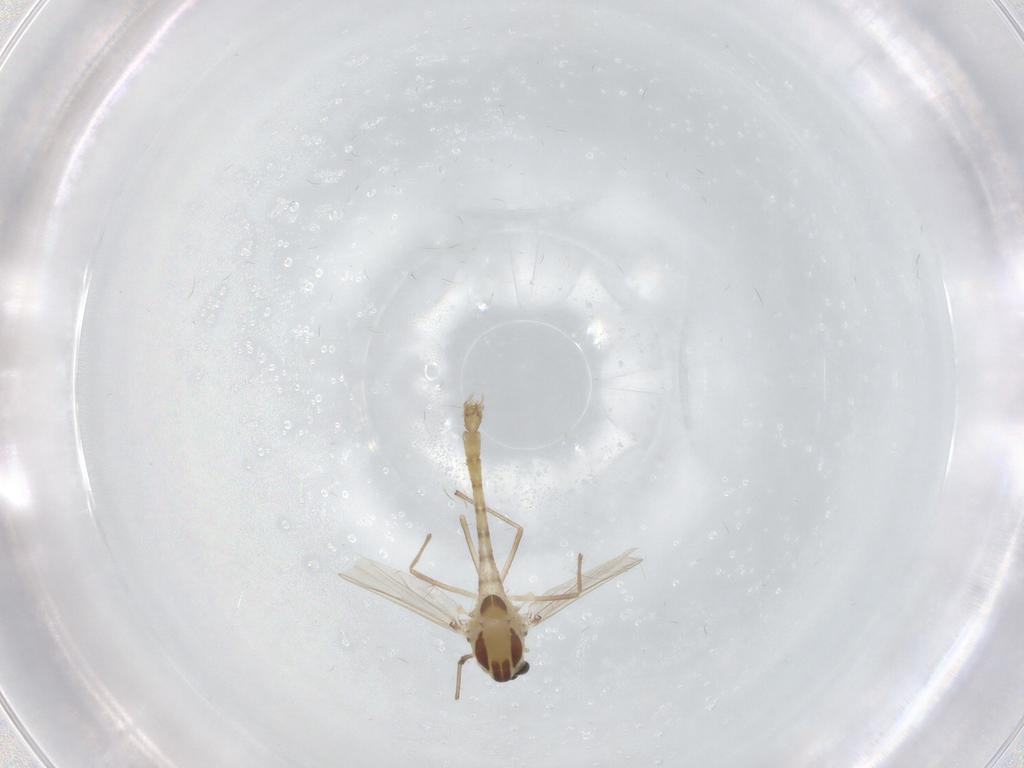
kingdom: Animalia
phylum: Arthropoda
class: Insecta
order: Diptera
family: Chironomidae
